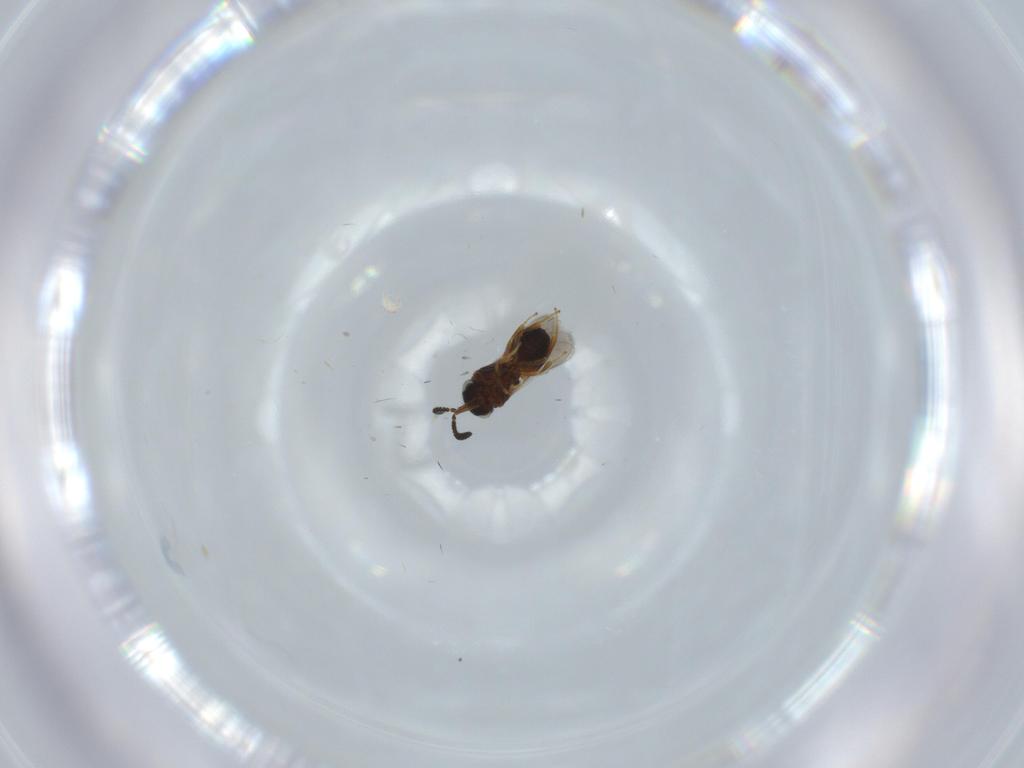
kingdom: Animalia
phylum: Arthropoda
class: Insecta
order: Hymenoptera
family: Scelionidae
